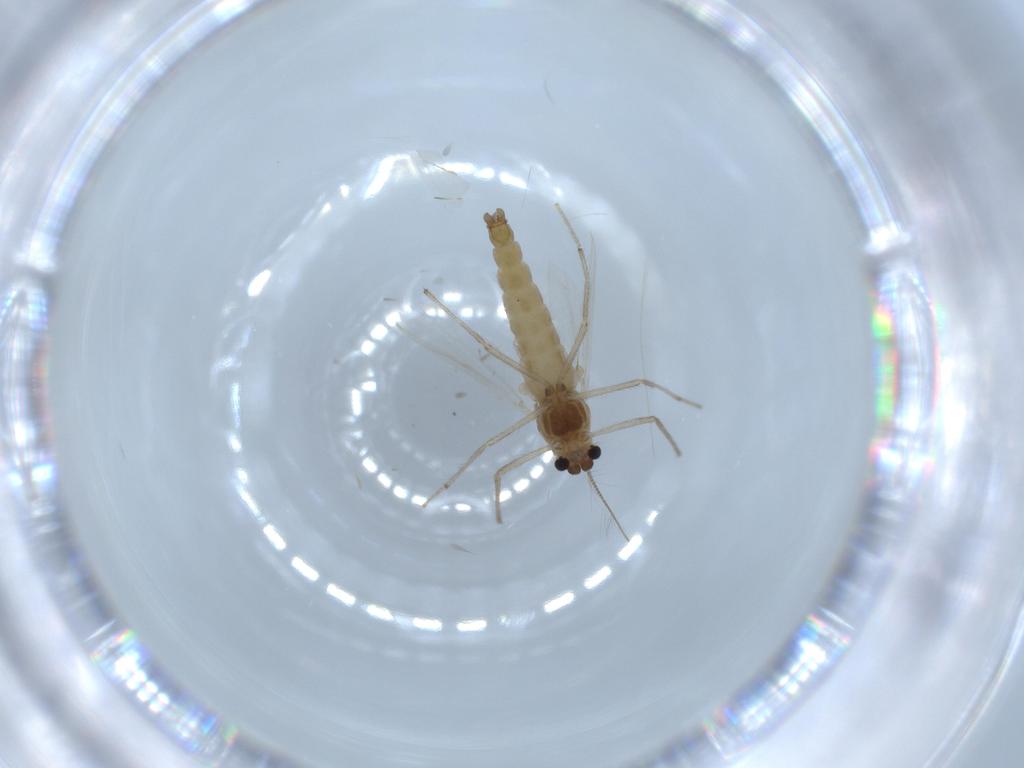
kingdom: Animalia
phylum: Arthropoda
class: Insecta
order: Diptera
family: Chironomidae
